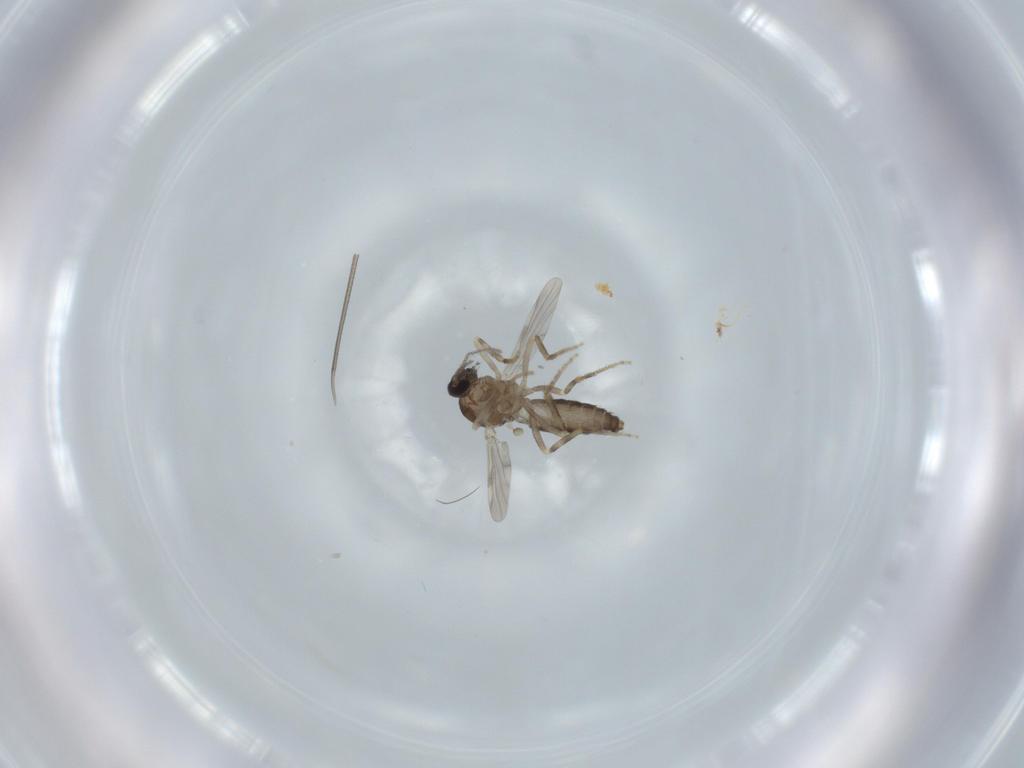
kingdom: Animalia
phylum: Arthropoda
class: Insecta
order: Diptera
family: Ceratopogonidae
